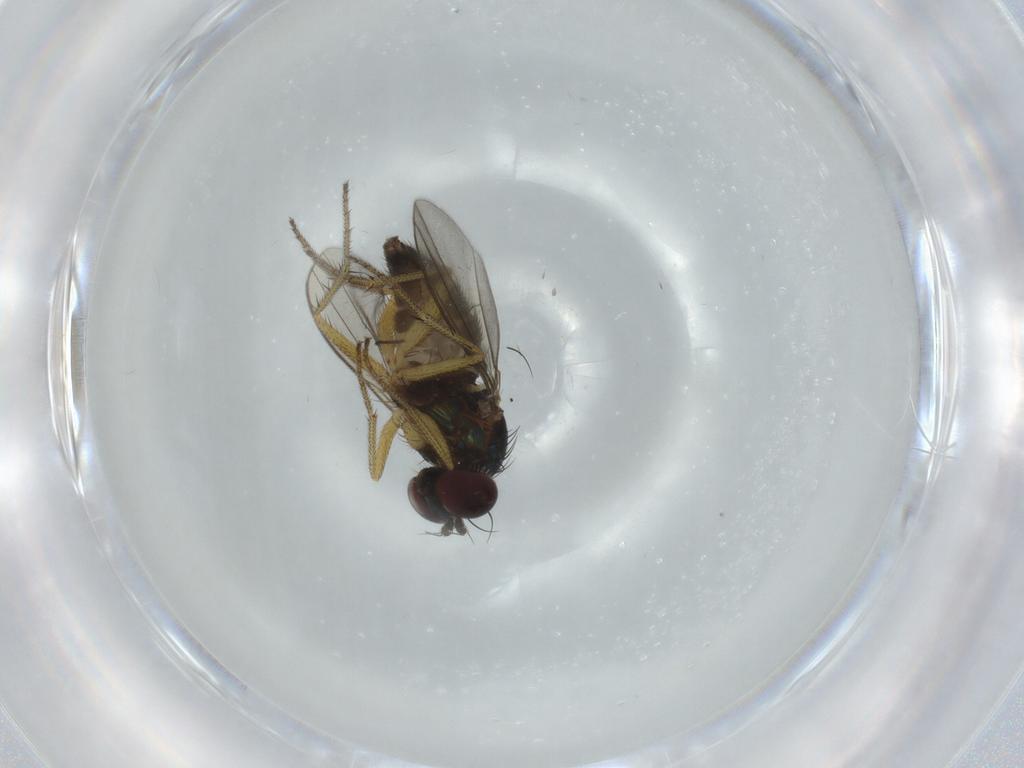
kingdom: Animalia
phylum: Arthropoda
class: Insecta
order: Diptera
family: Dolichopodidae
